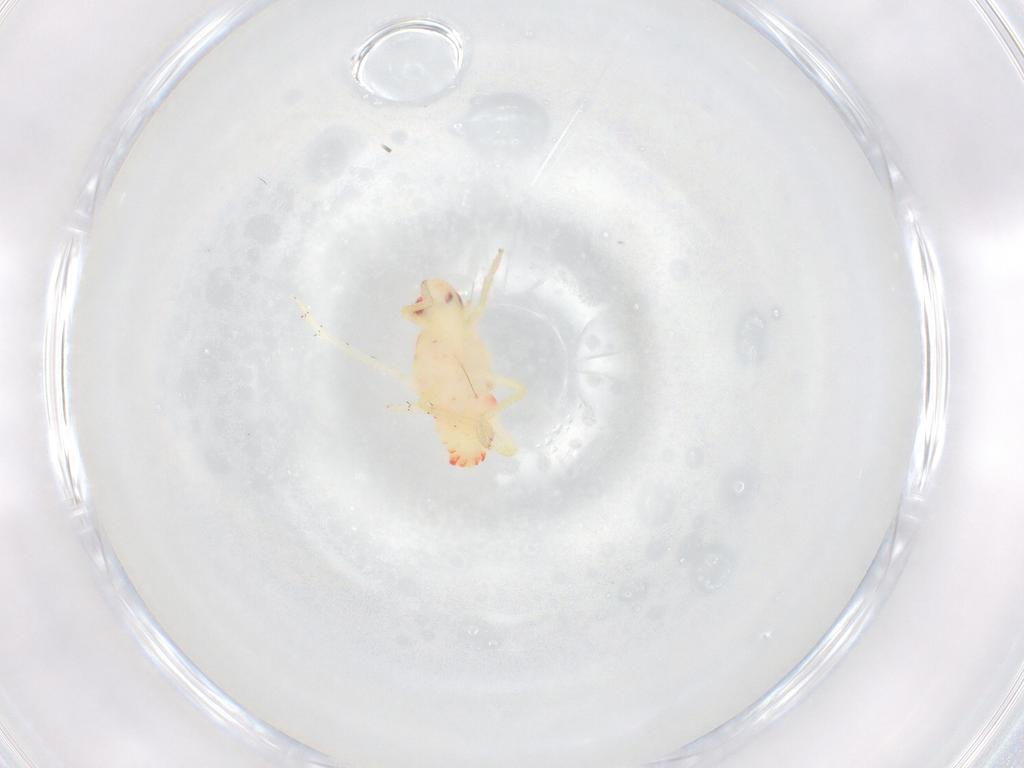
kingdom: Animalia
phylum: Arthropoda
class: Insecta
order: Hemiptera
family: Tropiduchidae
